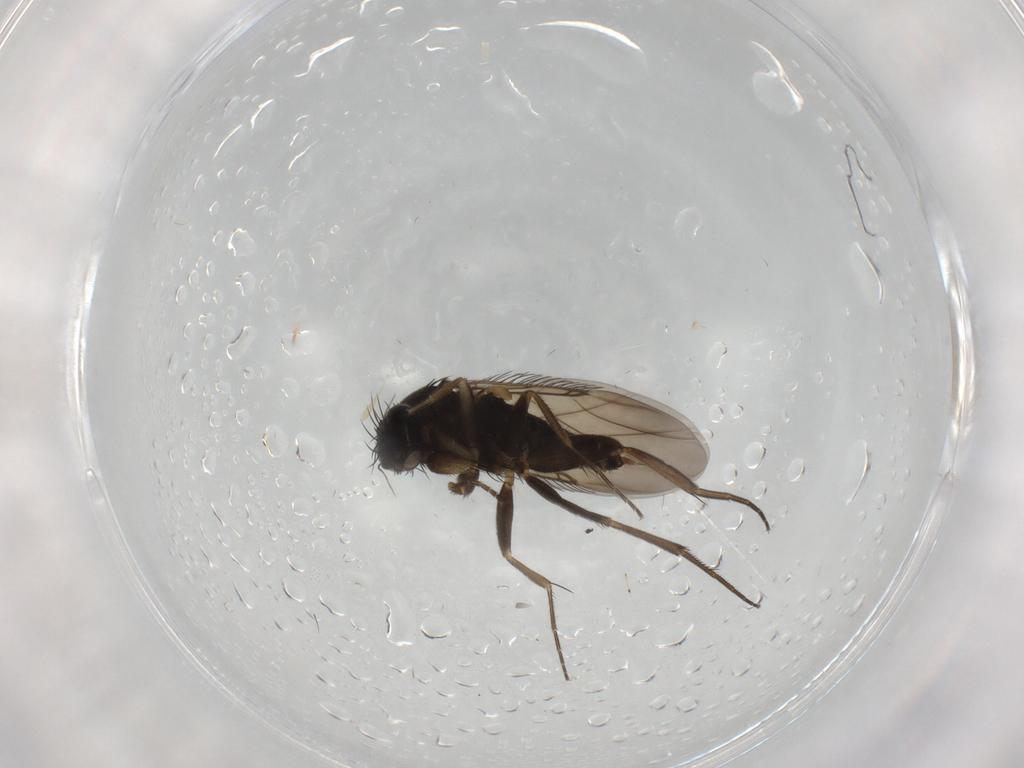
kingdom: Animalia
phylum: Arthropoda
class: Insecta
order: Diptera
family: Phoridae
